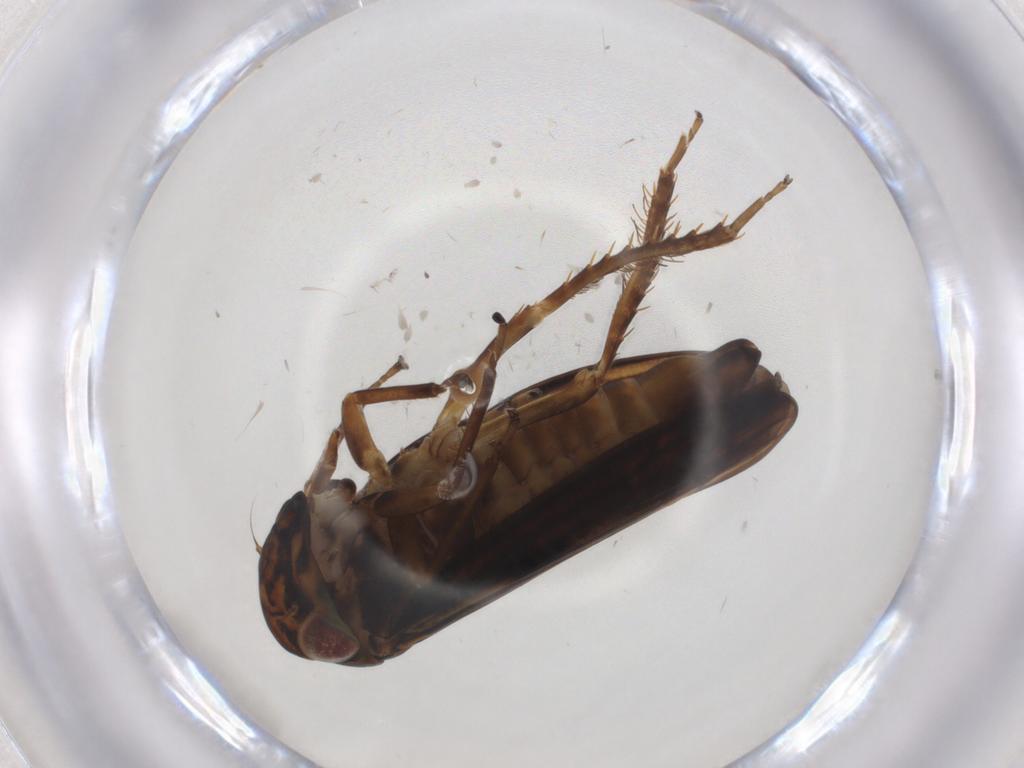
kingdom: Animalia
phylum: Arthropoda
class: Insecta
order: Hemiptera
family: Cicadellidae
